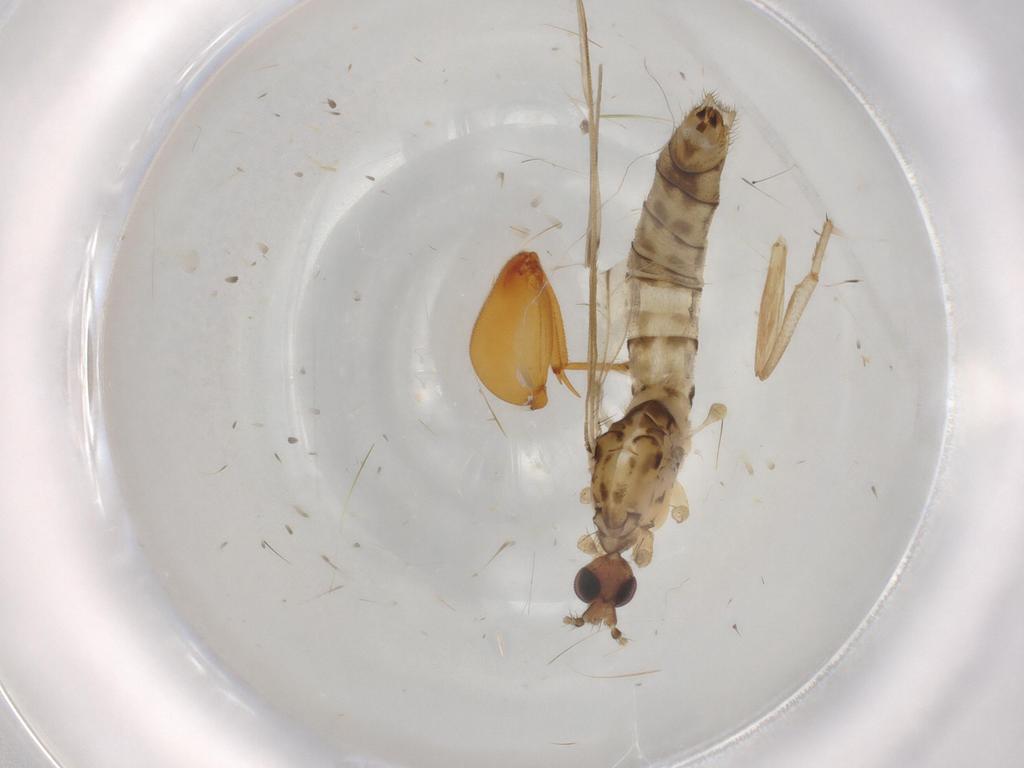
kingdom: Animalia
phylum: Arthropoda
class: Insecta
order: Diptera
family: Limoniidae
